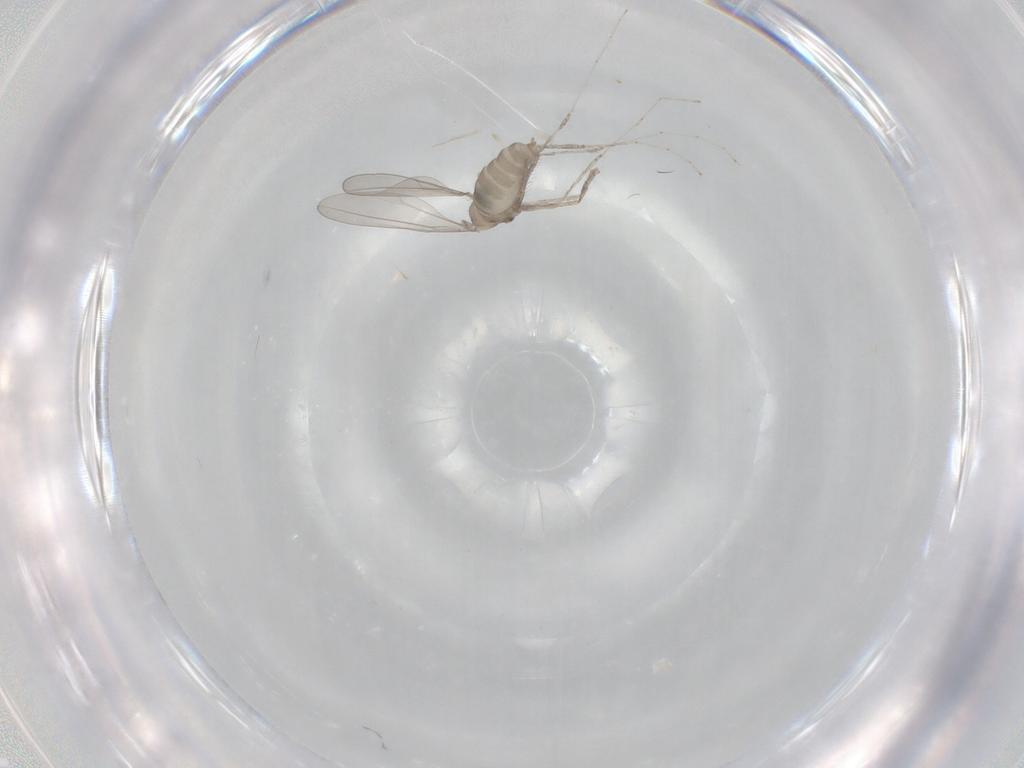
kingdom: Animalia
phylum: Arthropoda
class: Insecta
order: Diptera
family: Cecidomyiidae
